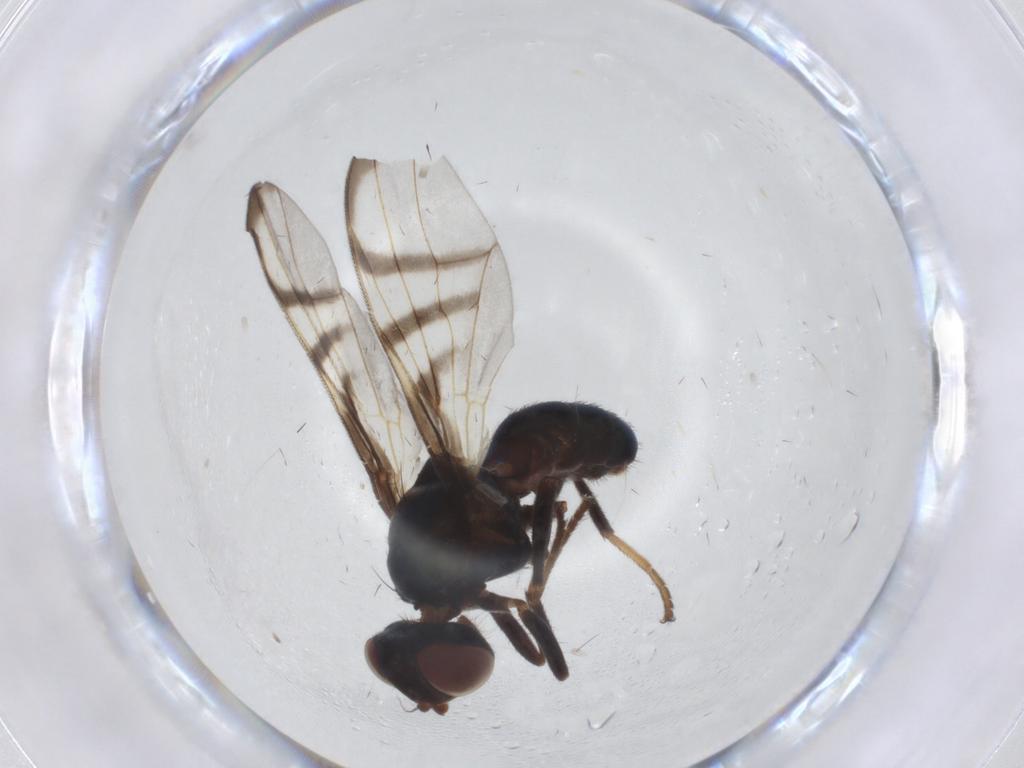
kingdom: Animalia
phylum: Arthropoda
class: Insecta
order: Diptera
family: Platystomatidae
